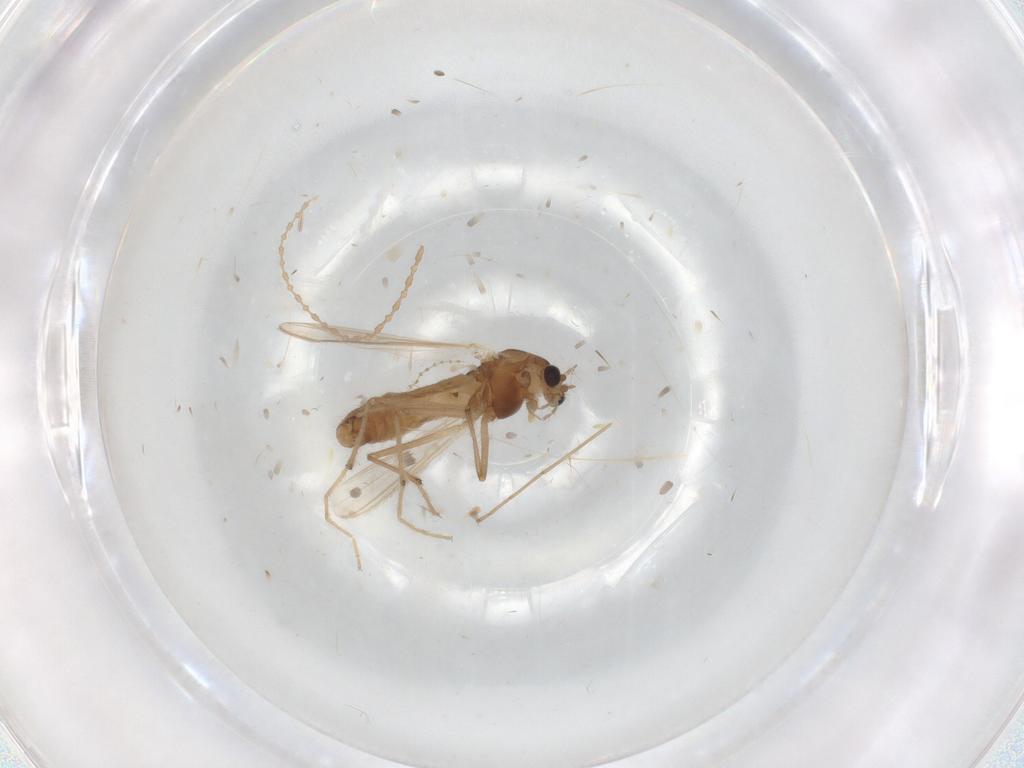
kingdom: Animalia
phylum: Arthropoda
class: Insecta
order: Diptera
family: Chironomidae
